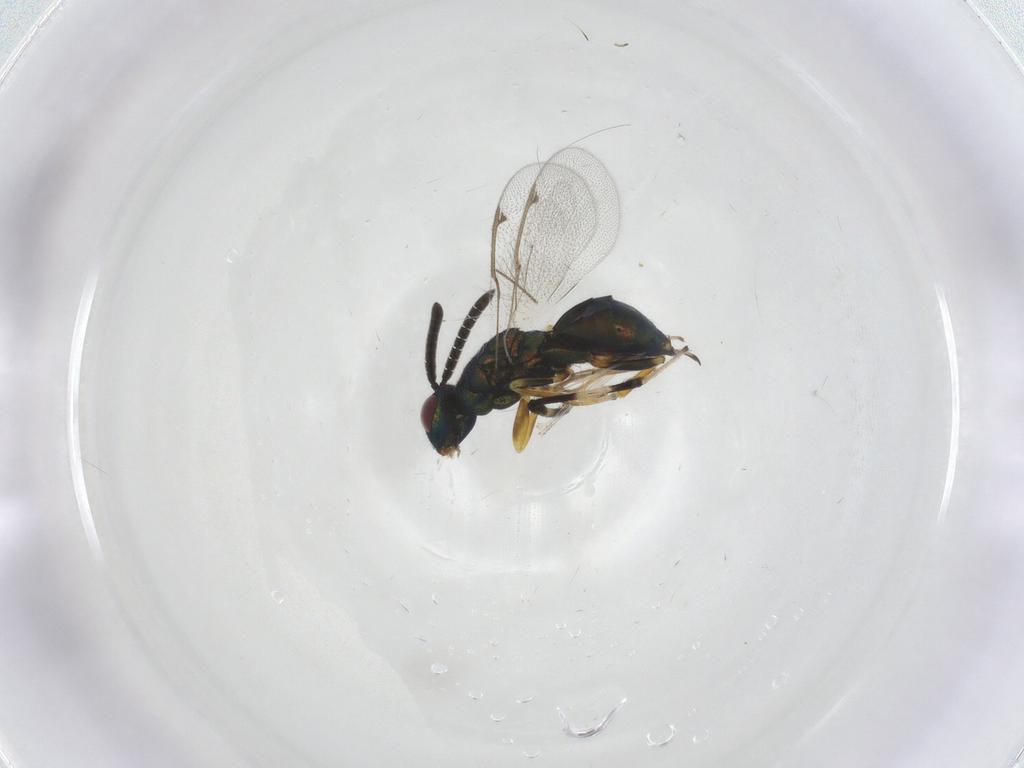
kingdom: Animalia
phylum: Arthropoda
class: Insecta
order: Hymenoptera
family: Torymidae
